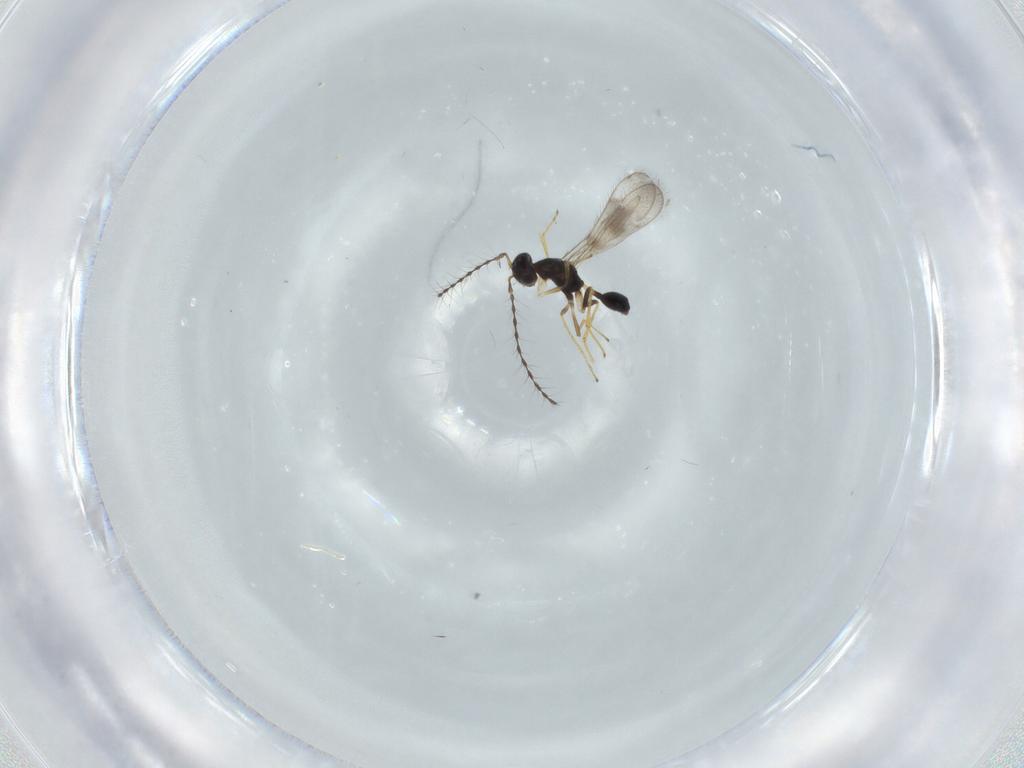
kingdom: Animalia
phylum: Arthropoda
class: Insecta
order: Hymenoptera
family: Diparidae
